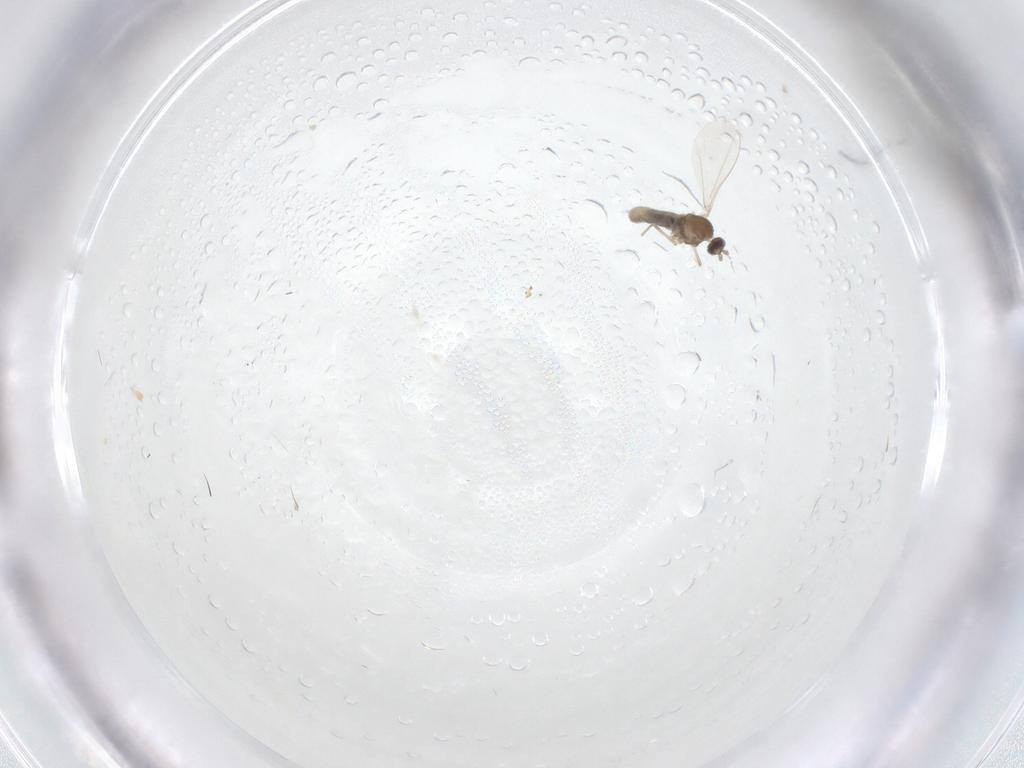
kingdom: Animalia
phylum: Arthropoda
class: Insecta
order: Diptera
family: Cecidomyiidae
